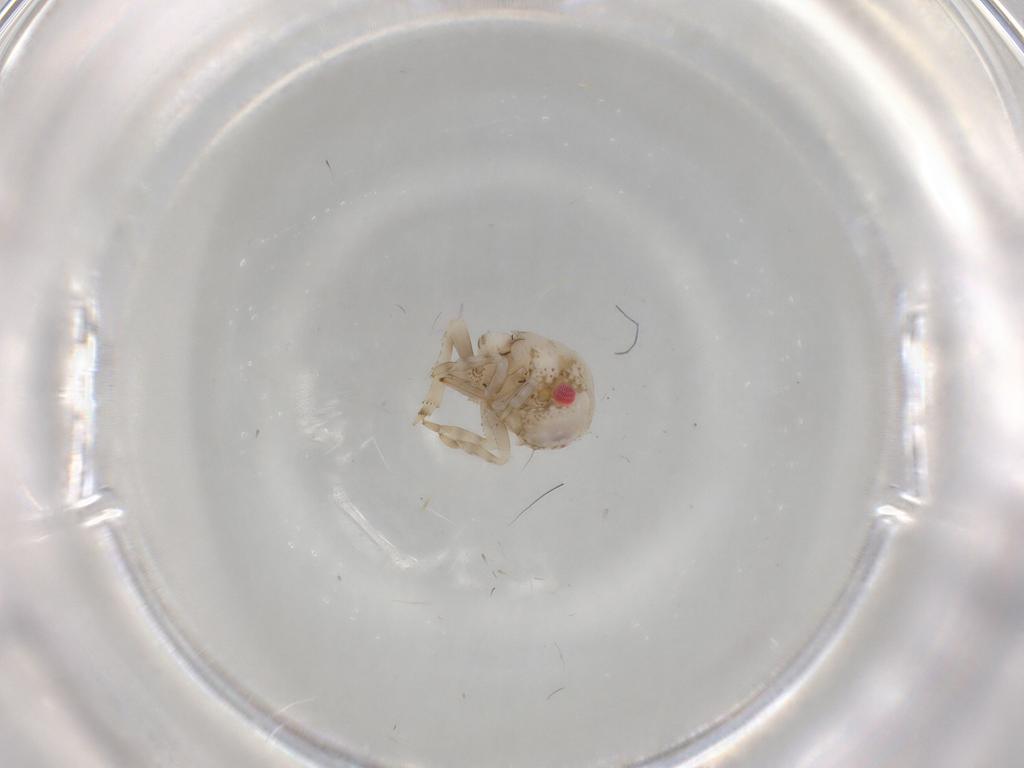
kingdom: Animalia
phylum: Arthropoda
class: Insecta
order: Hemiptera
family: Acanaloniidae
